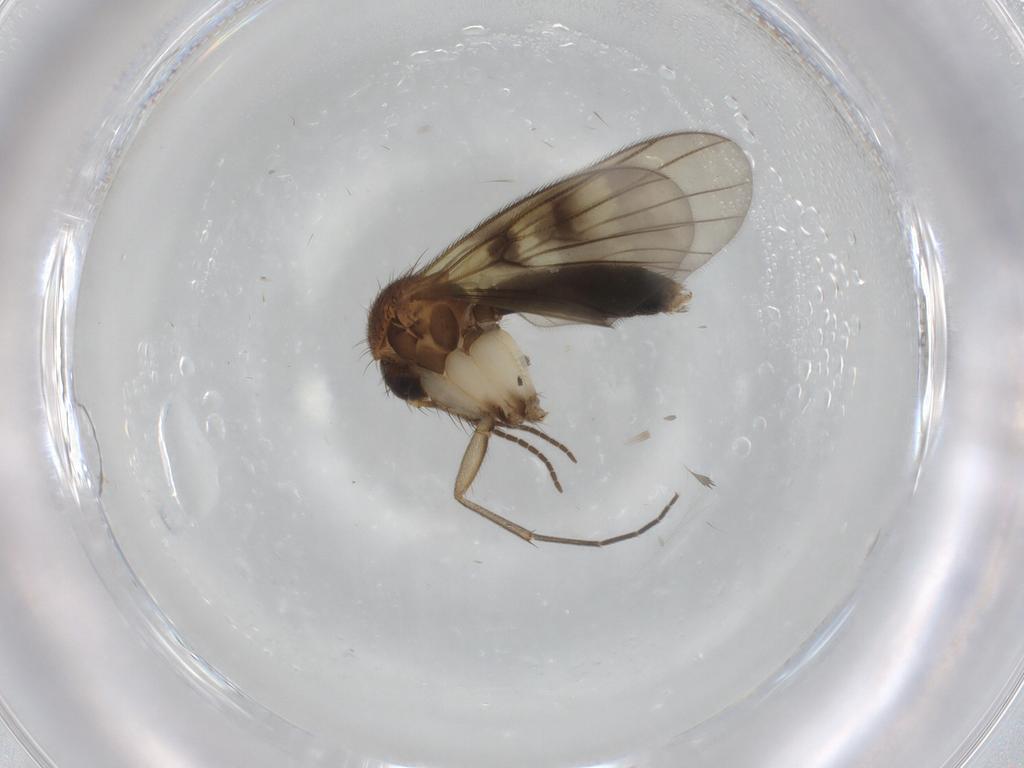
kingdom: Animalia
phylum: Arthropoda
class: Insecta
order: Diptera
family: Mycetophilidae
